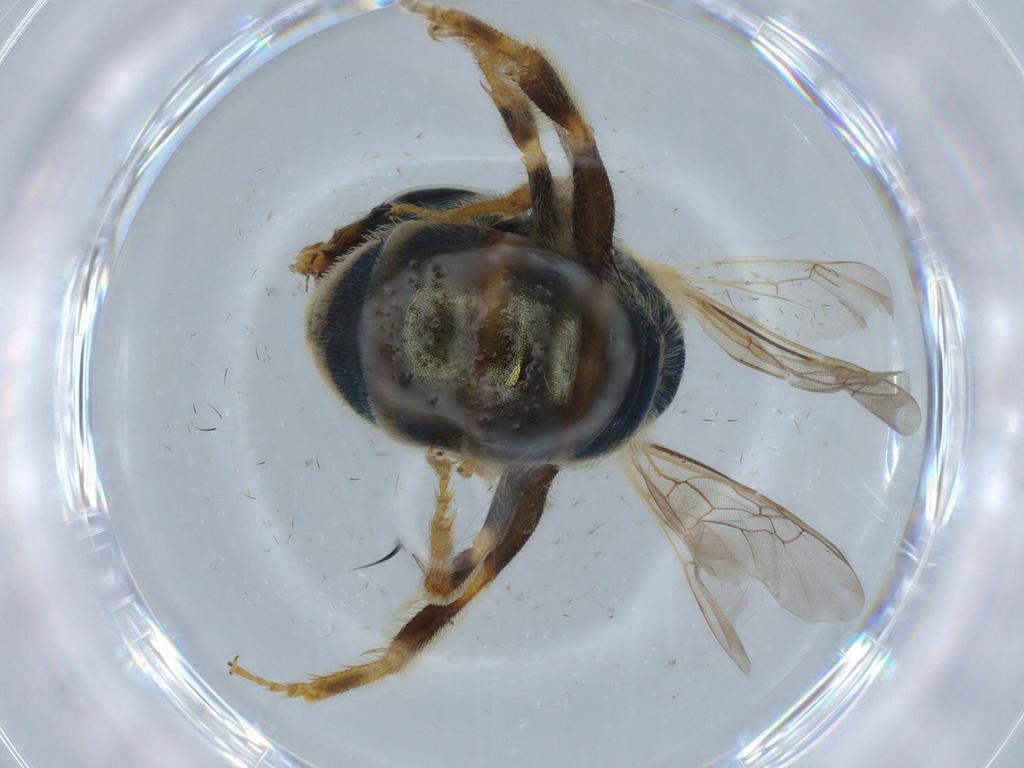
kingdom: Animalia
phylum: Arthropoda
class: Insecta
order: Hymenoptera
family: Halictidae
